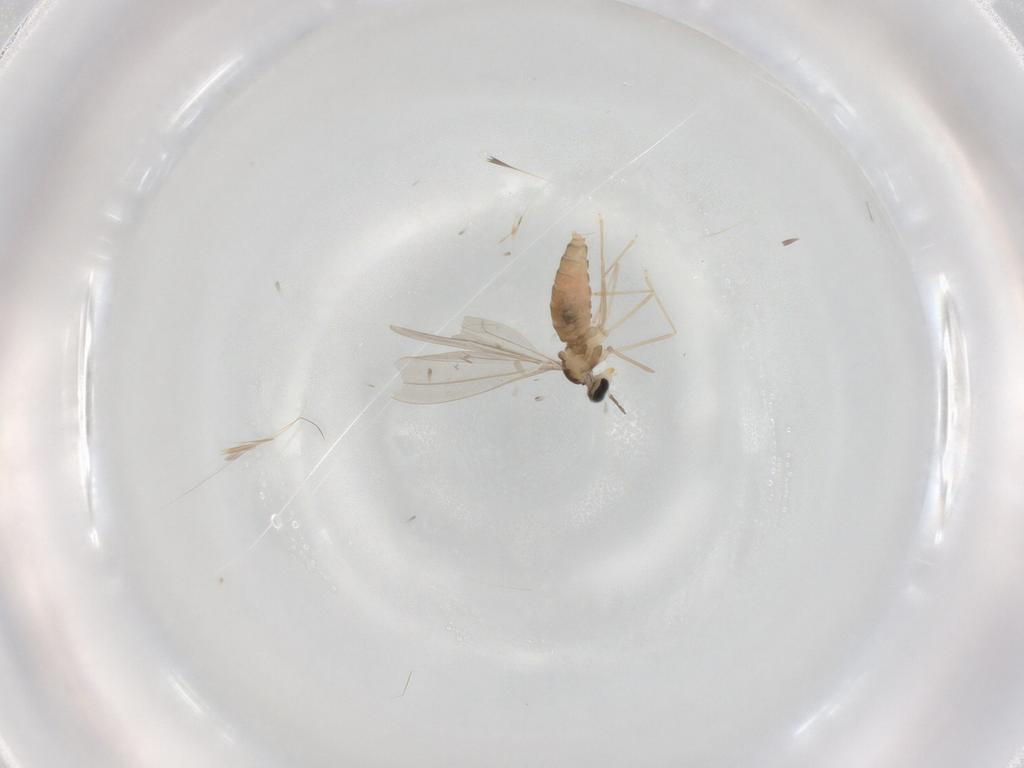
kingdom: Animalia
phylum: Arthropoda
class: Insecta
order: Diptera
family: Cecidomyiidae
